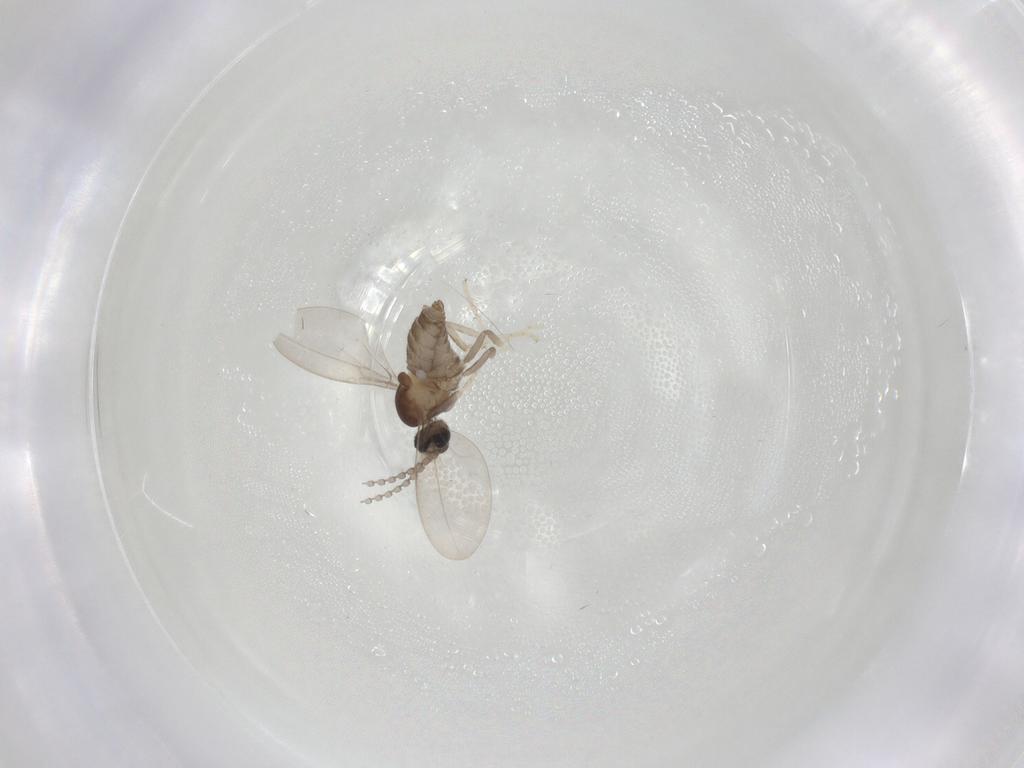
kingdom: Animalia
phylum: Arthropoda
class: Insecta
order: Diptera
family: Cecidomyiidae
